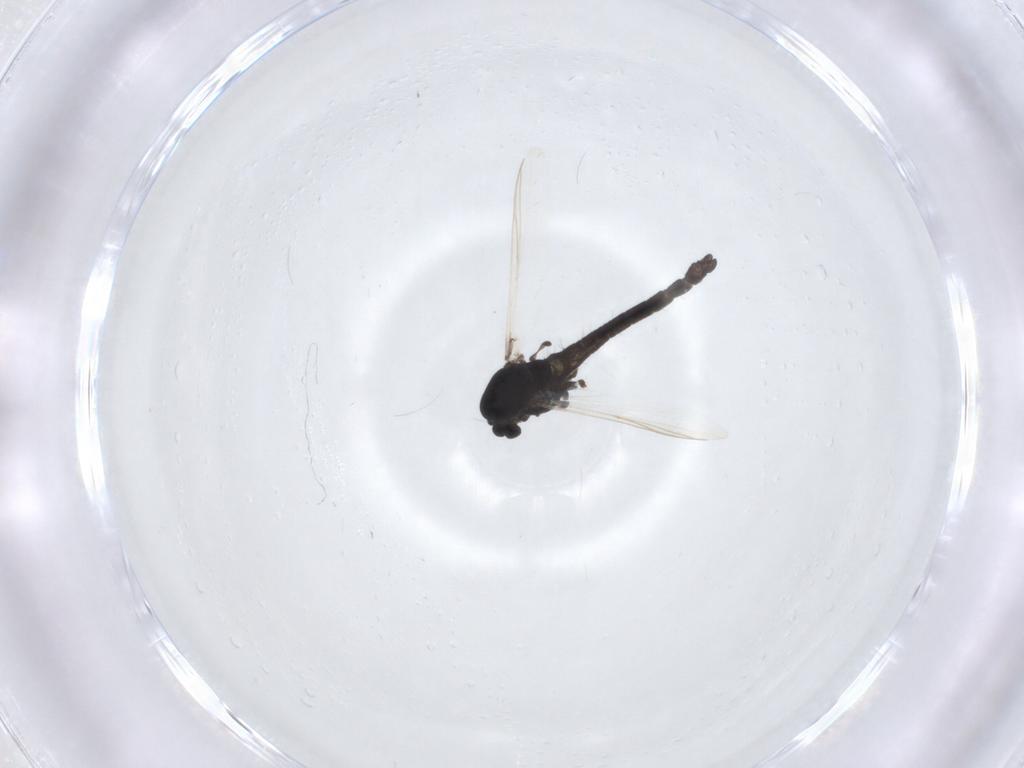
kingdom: Animalia
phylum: Arthropoda
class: Insecta
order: Diptera
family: Chironomidae
